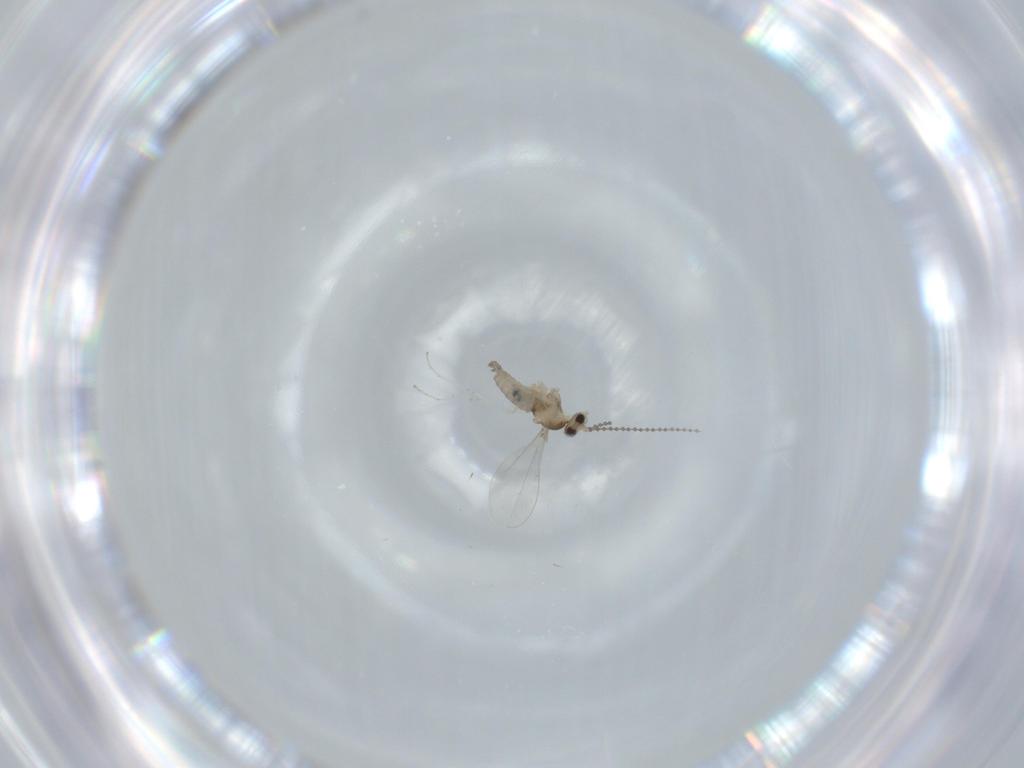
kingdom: Animalia
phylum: Arthropoda
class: Insecta
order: Diptera
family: Cecidomyiidae
